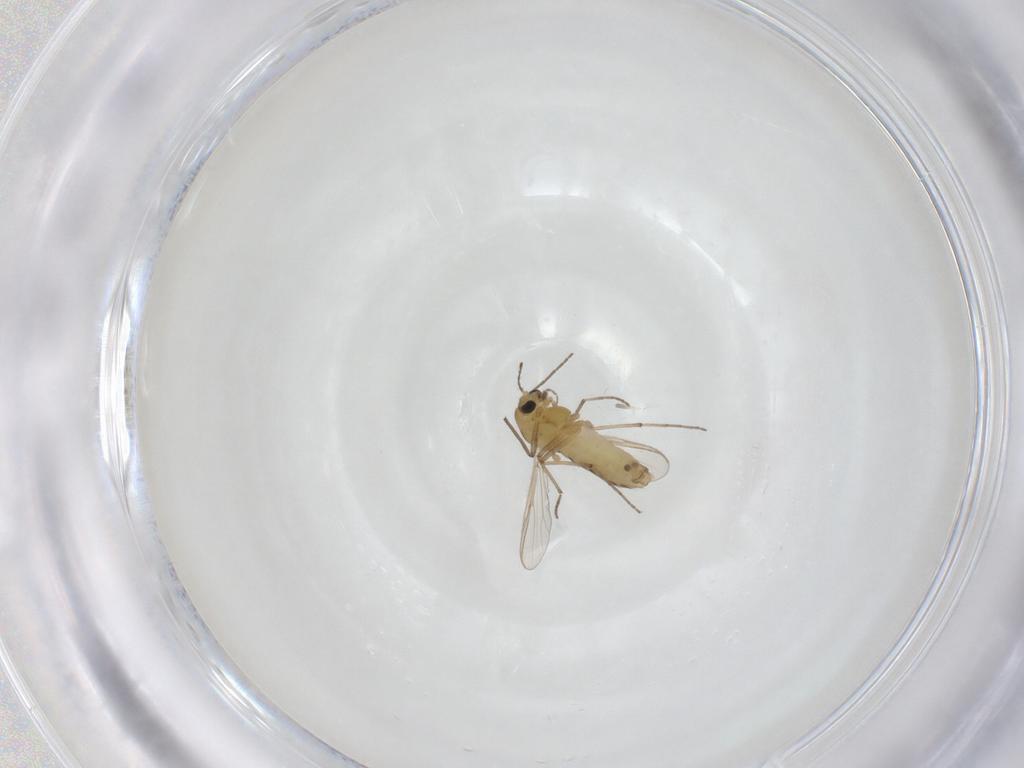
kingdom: Animalia
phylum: Arthropoda
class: Insecta
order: Diptera
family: Chironomidae
